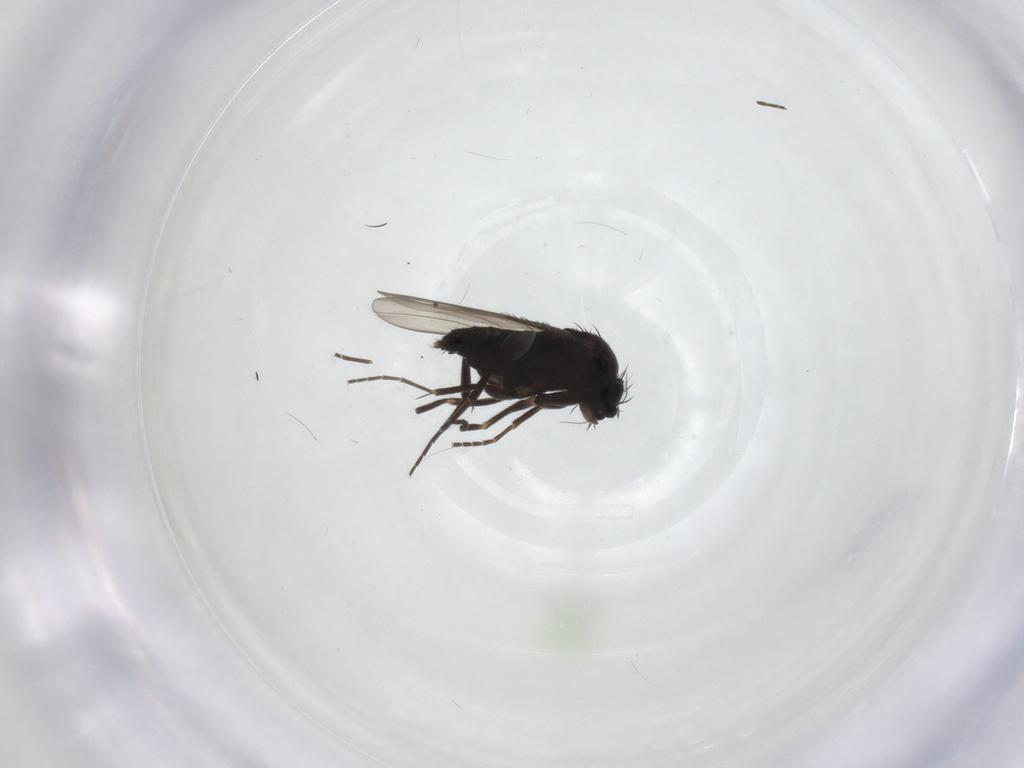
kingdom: Animalia
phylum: Arthropoda
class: Insecta
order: Diptera
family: Phoridae
